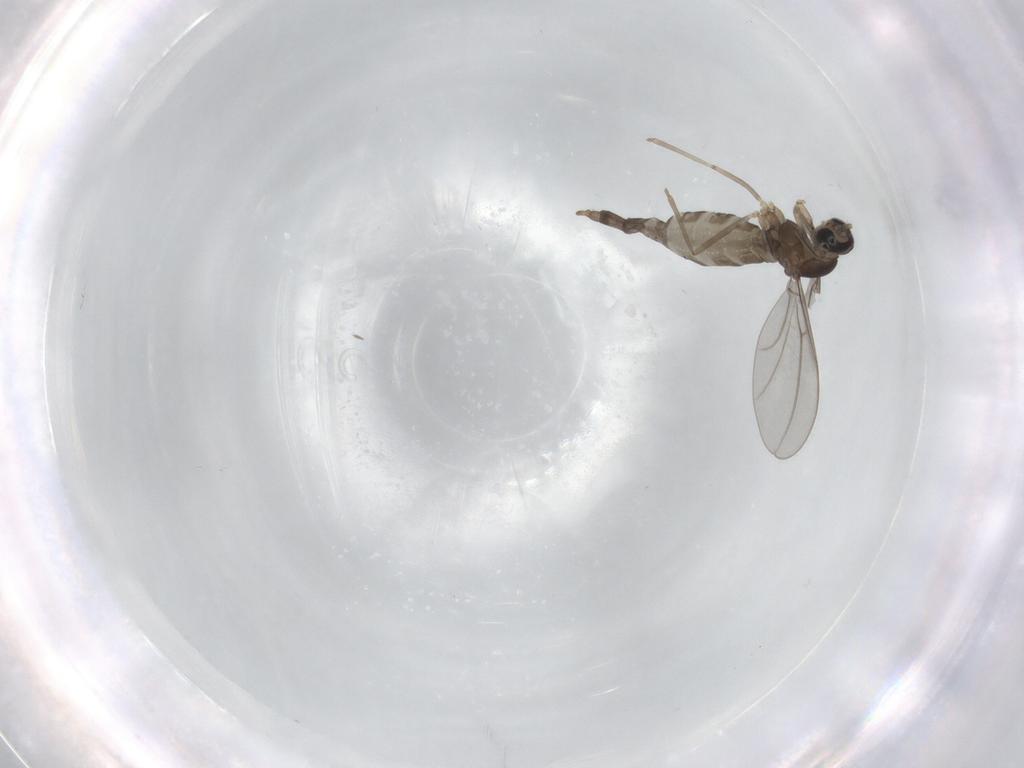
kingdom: Animalia
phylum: Arthropoda
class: Insecta
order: Diptera
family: Cecidomyiidae
